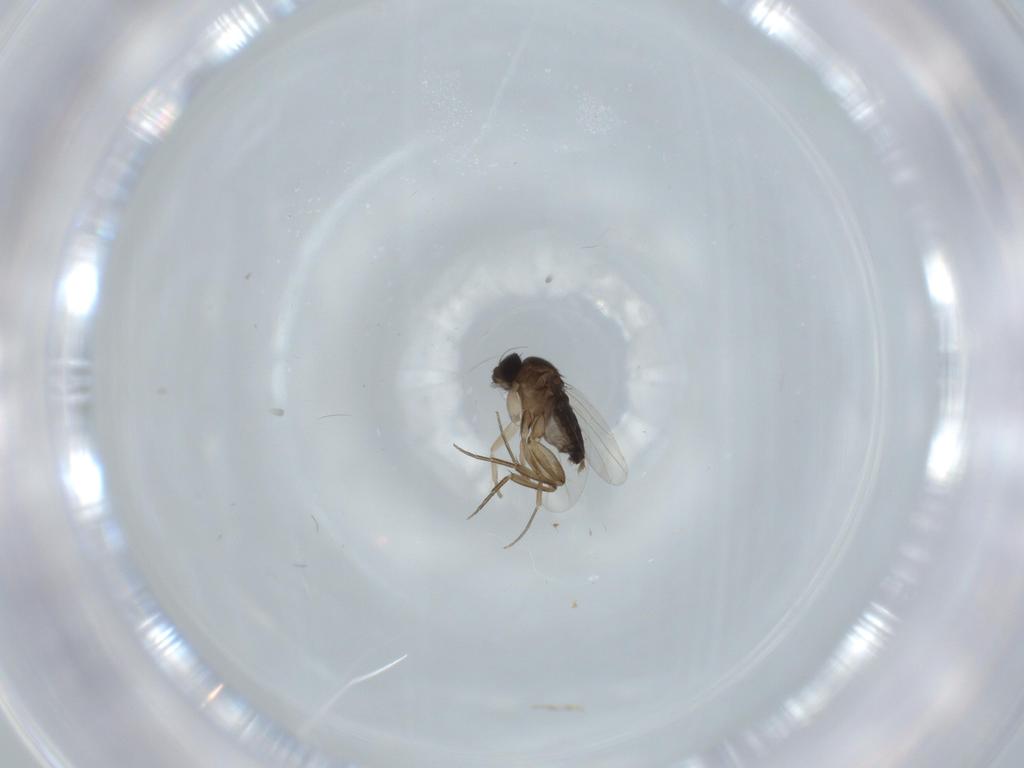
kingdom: Animalia
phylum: Arthropoda
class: Insecta
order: Diptera
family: Phoridae
